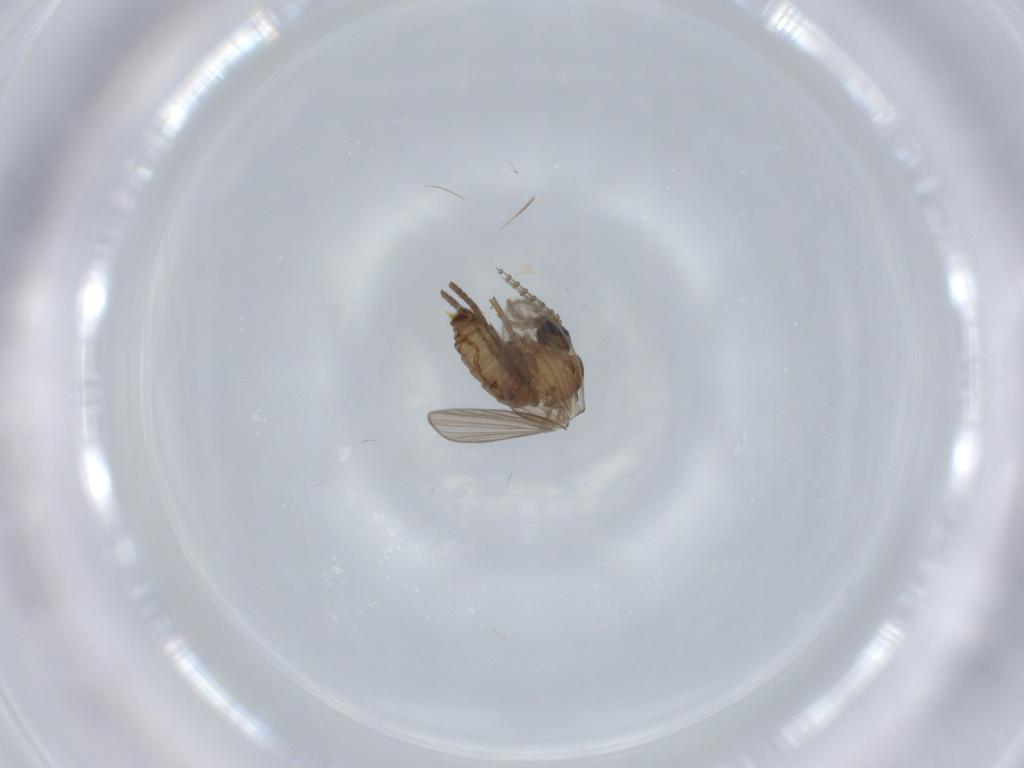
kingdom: Animalia
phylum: Arthropoda
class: Insecta
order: Diptera
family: Psychodidae
